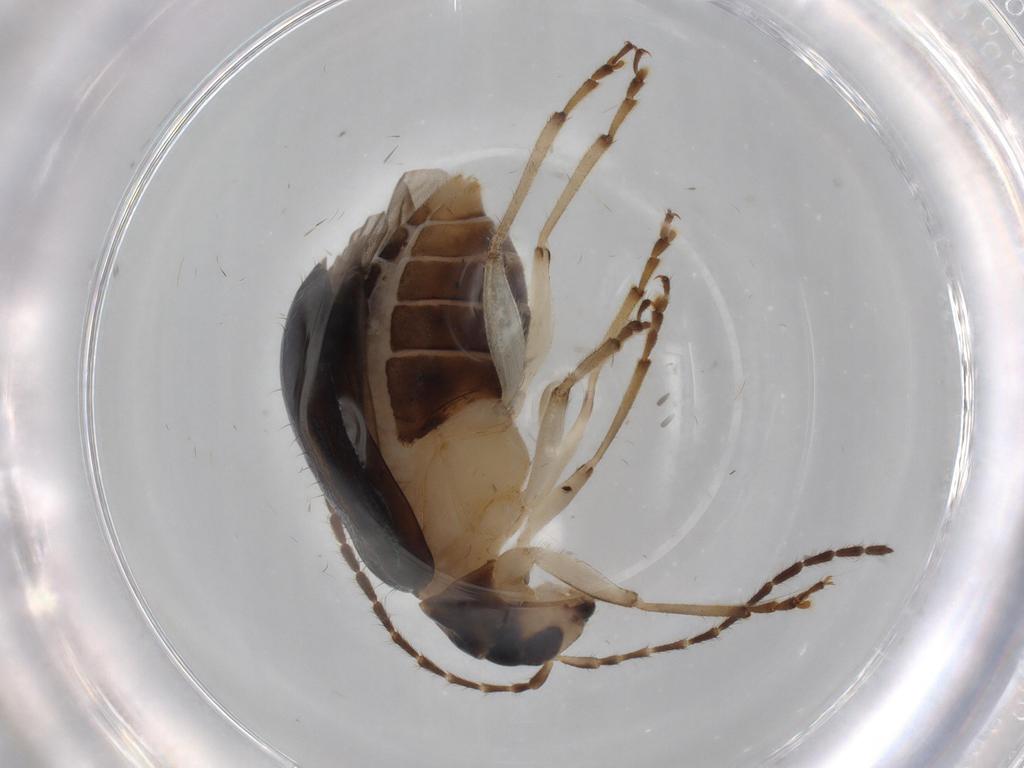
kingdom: Animalia
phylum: Arthropoda
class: Insecta
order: Coleoptera
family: Chrysomelidae
